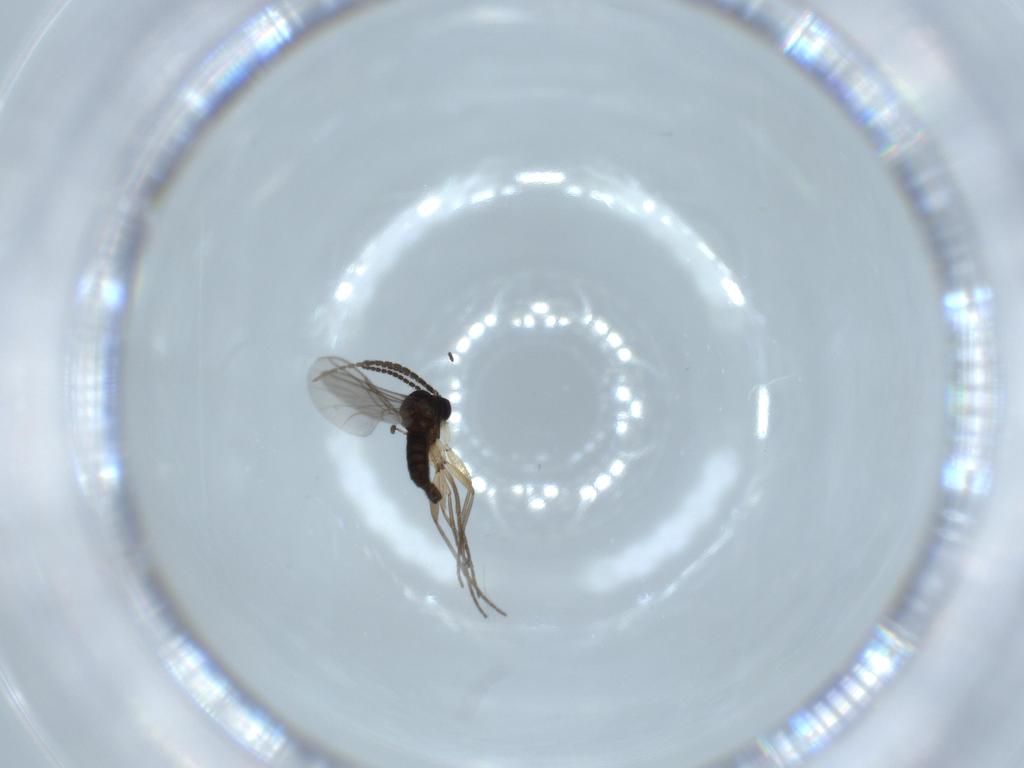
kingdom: Animalia
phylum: Arthropoda
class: Insecta
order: Diptera
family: Sciaridae
